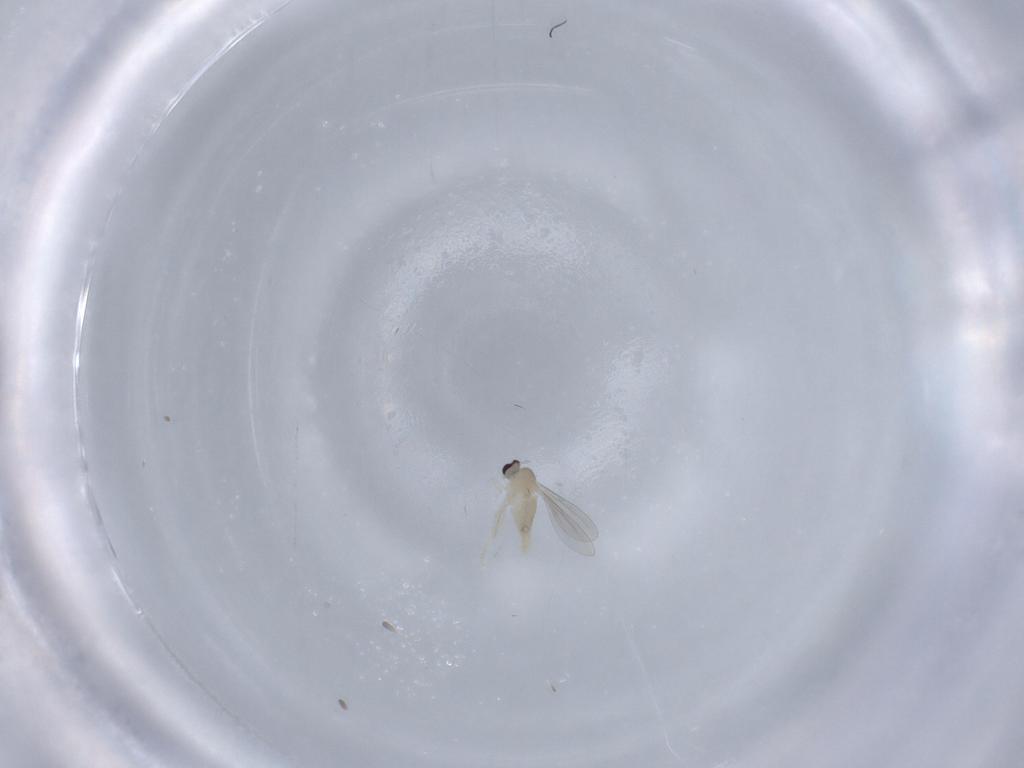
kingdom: Animalia
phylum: Arthropoda
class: Insecta
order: Diptera
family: Cecidomyiidae
